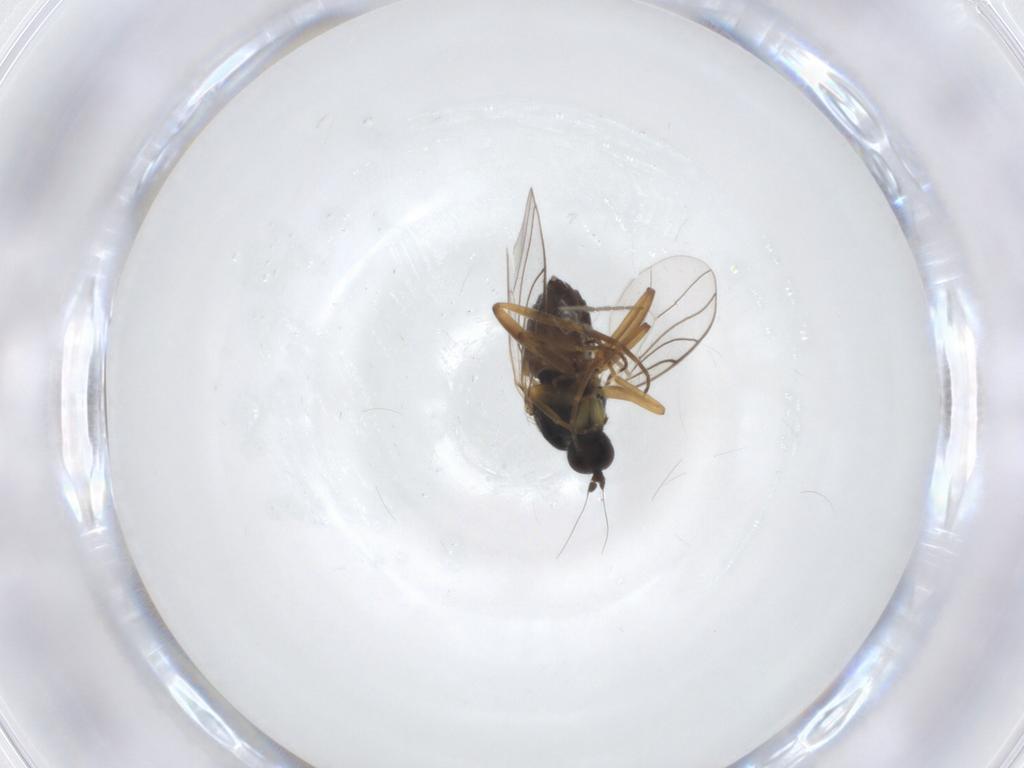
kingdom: Animalia
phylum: Arthropoda
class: Insecta
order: Diptera
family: Hybotidae
